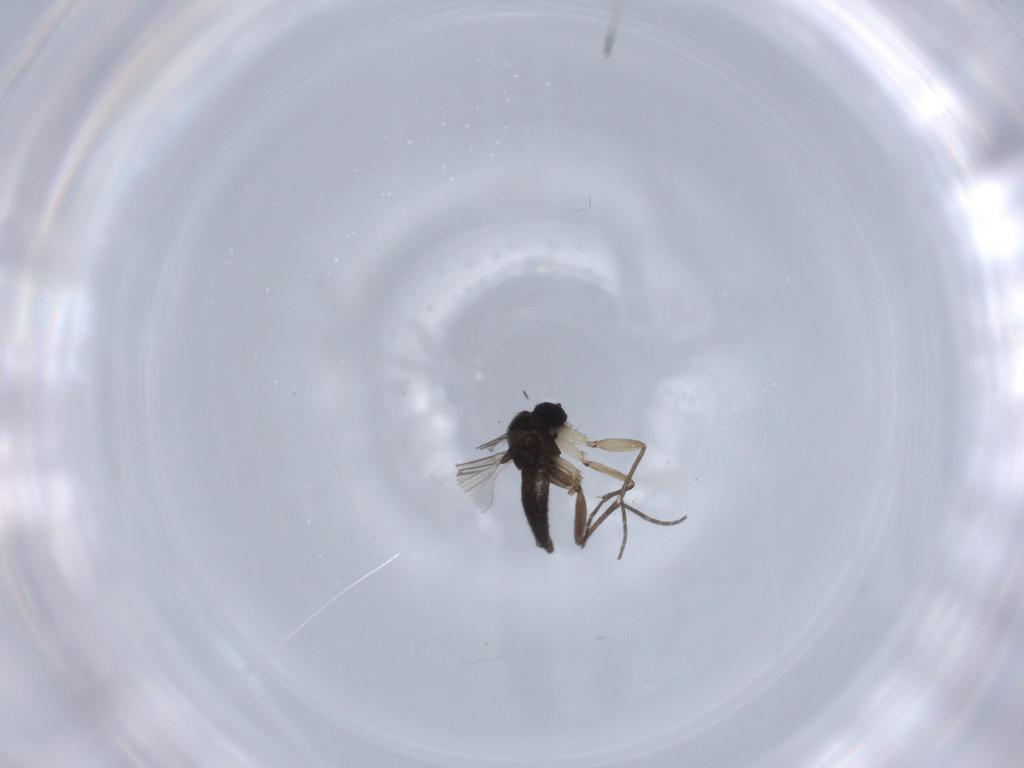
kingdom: Animalia
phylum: Arthropoda
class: Insecta
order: Diptera
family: Sciaridae
